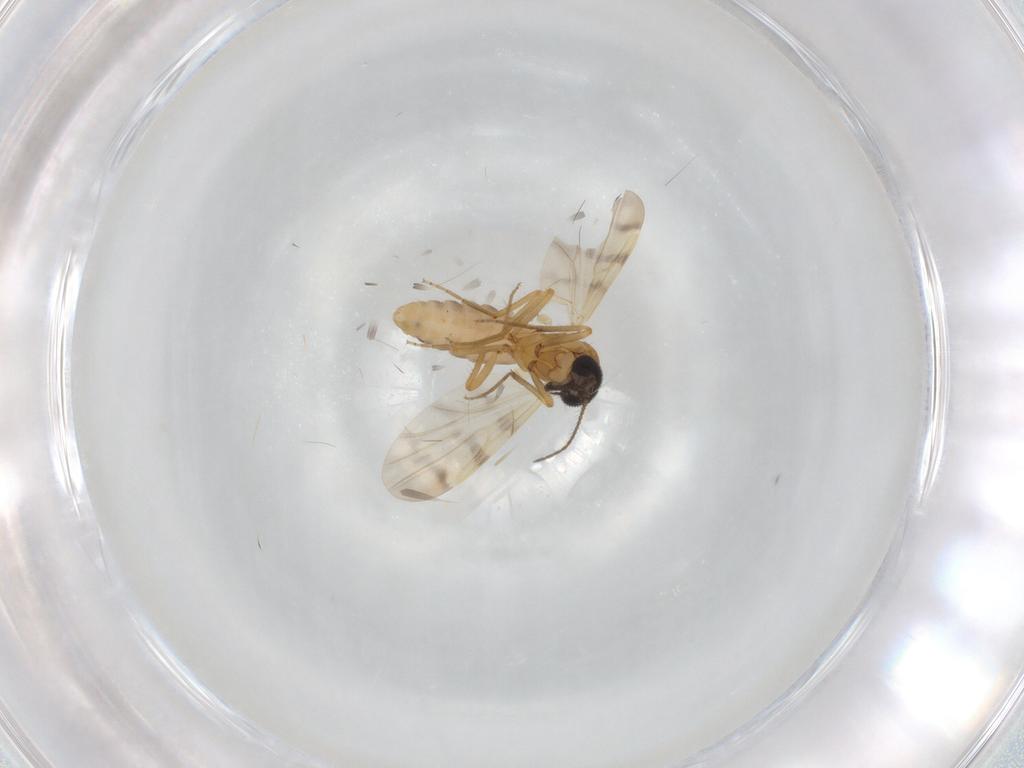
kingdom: Animalia
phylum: Arthropoda
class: Insecta
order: Diptera
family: Ceratopogonidae
